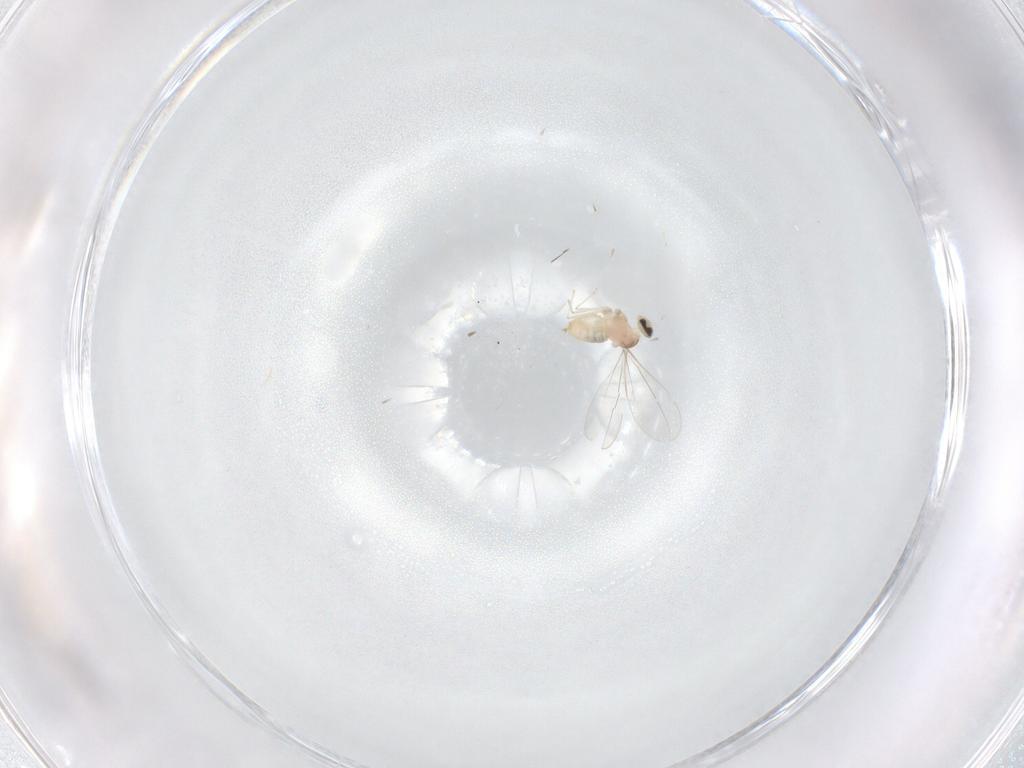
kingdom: Animalia
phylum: Arthropoda
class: Insecta
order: Diptera
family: Cecidomyiidae
